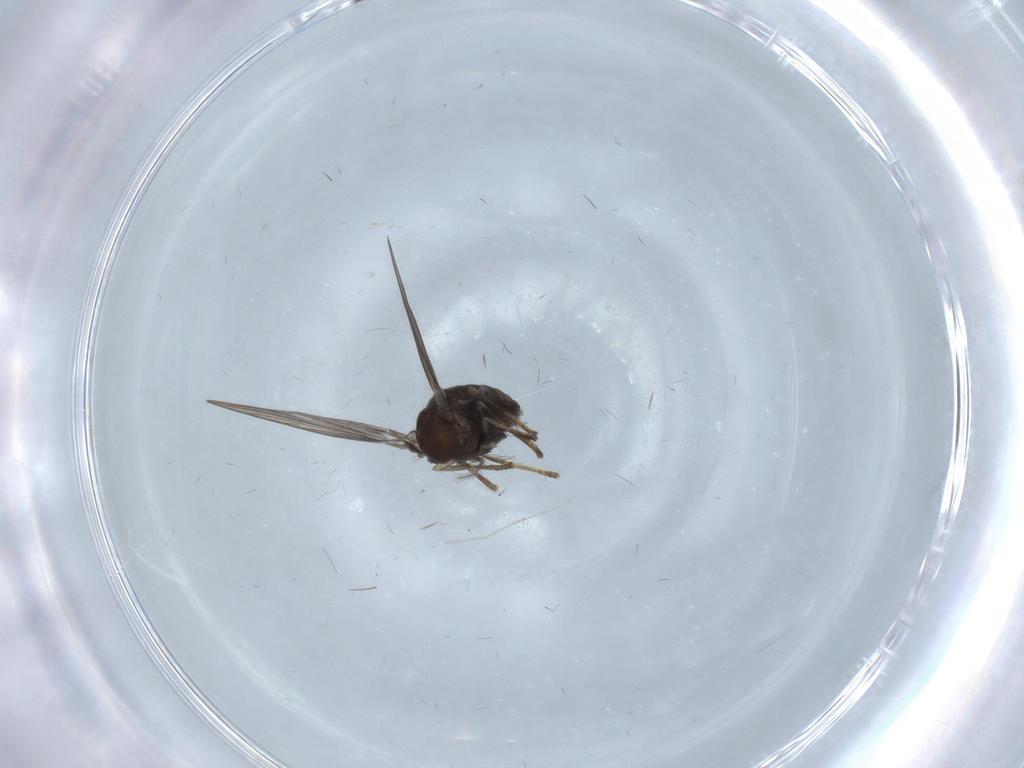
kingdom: Animalia
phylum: Arthropoda
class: Insecta
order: Diptera
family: Psychodidae
